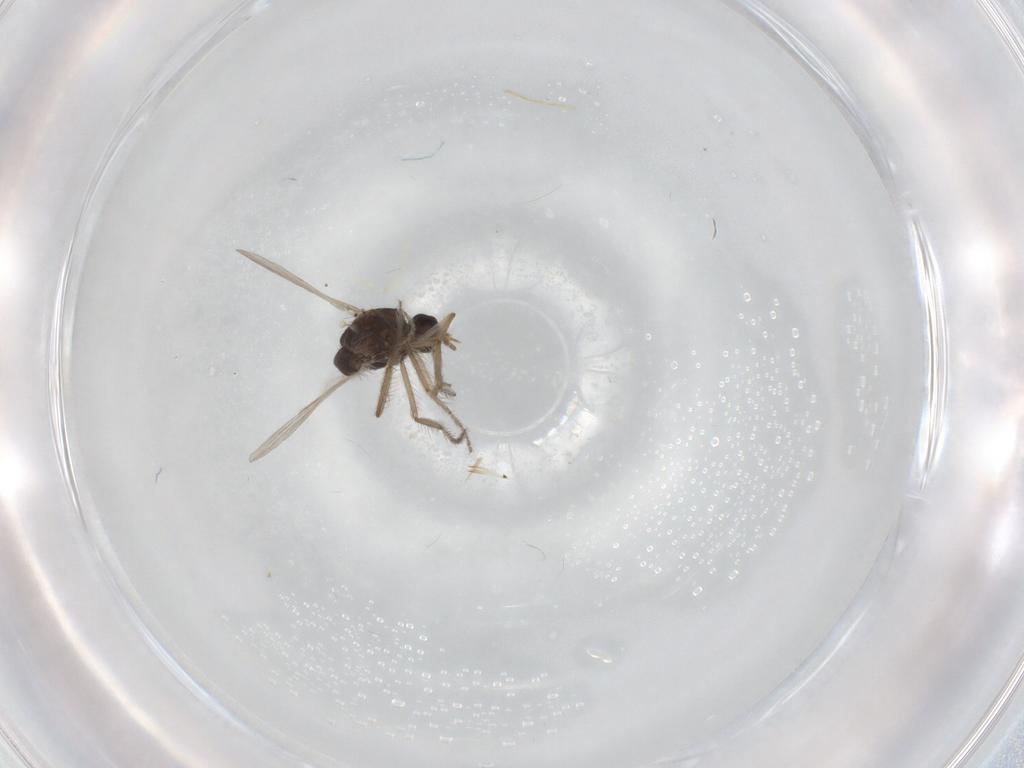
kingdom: Animalia
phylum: Arthropoda
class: Insecta
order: Diptera
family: Ceratopogonidae
